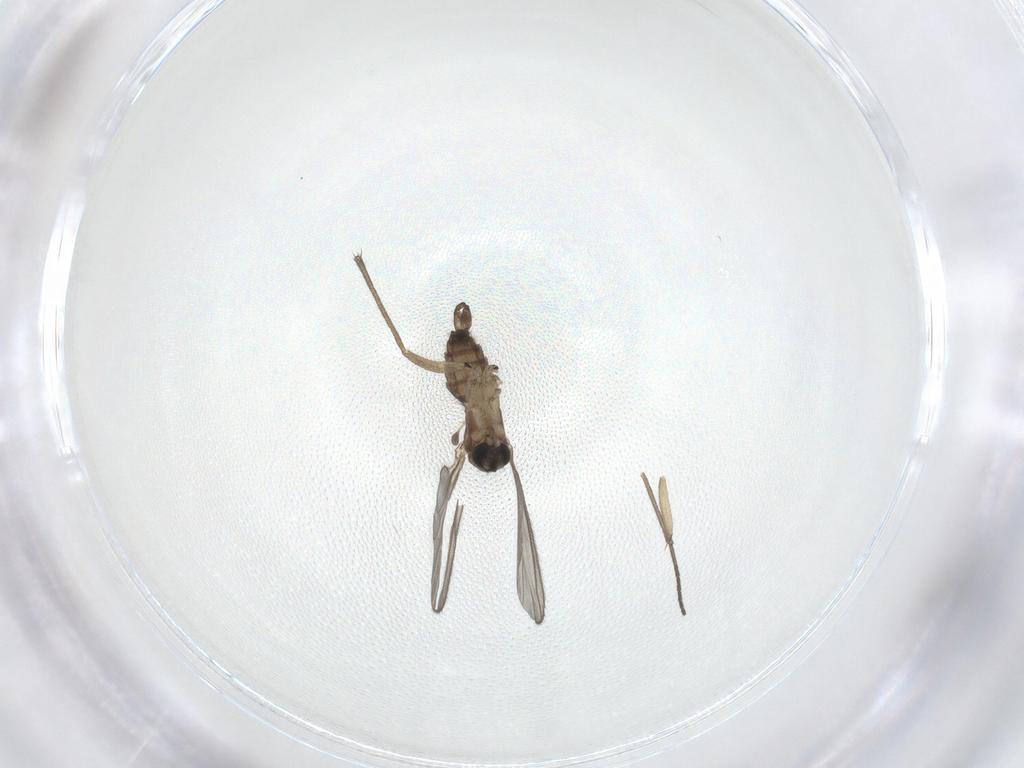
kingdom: Animalia
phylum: Arthropoda
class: Insecta
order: Diptera
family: Sciaridae
